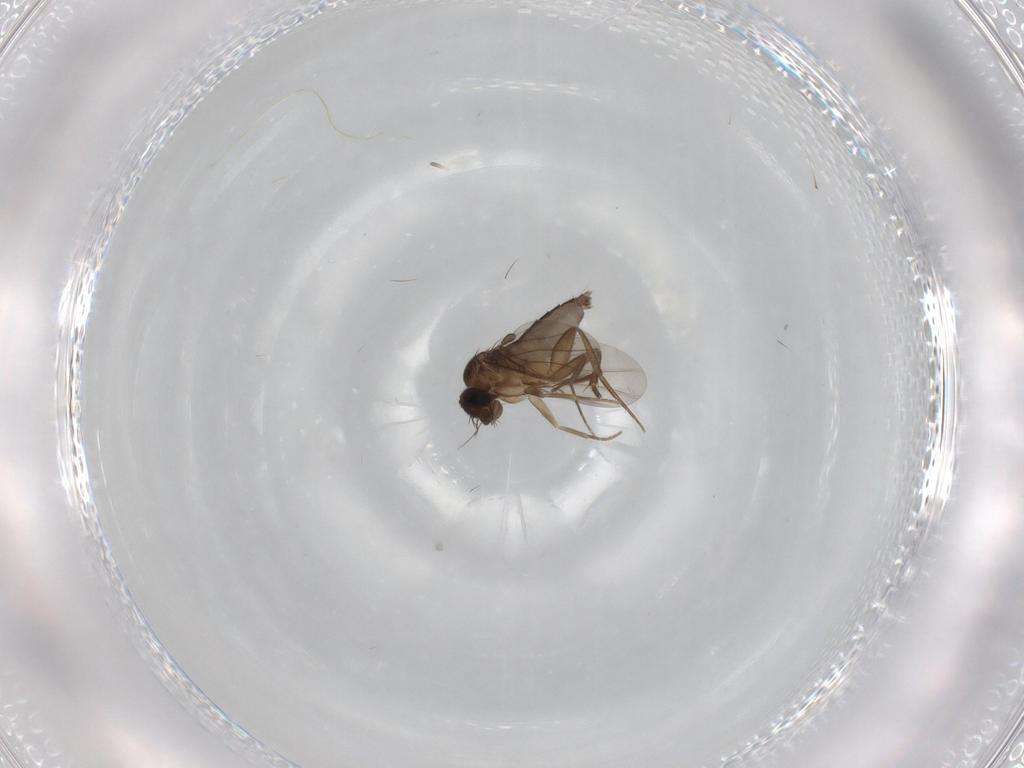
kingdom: Animalia
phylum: Arthropoda
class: Insecta
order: Diptera
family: Phoridae
